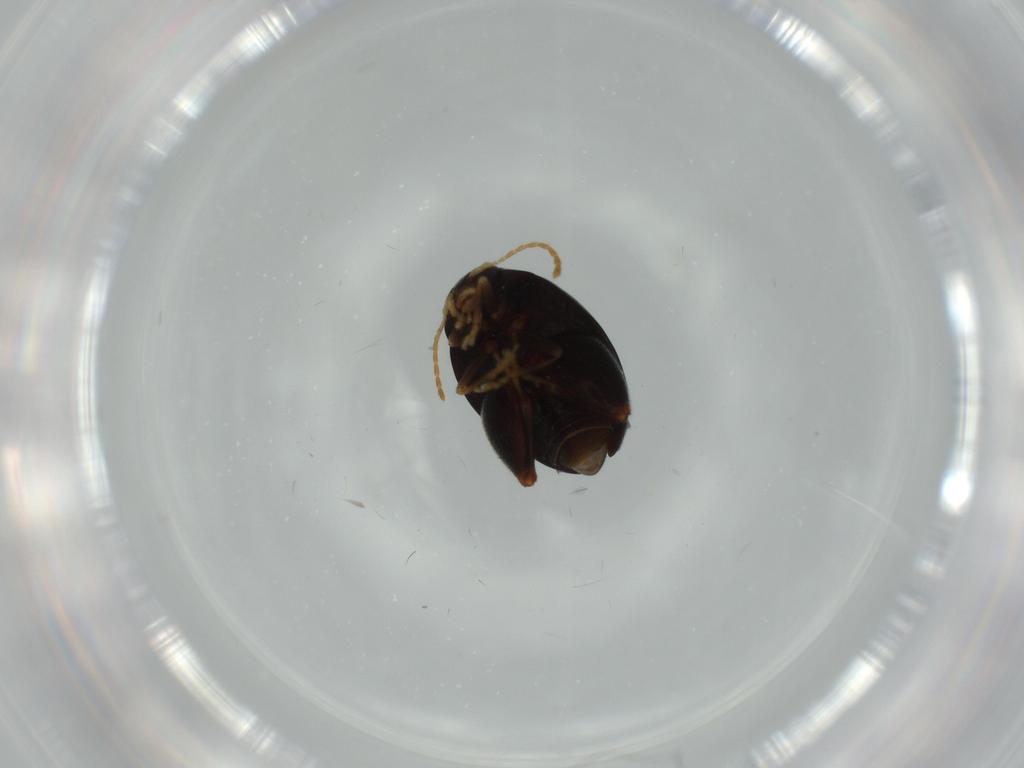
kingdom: Animalia
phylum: Arthropoda
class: Insecta
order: Coleoptera
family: Chrysomelidae
